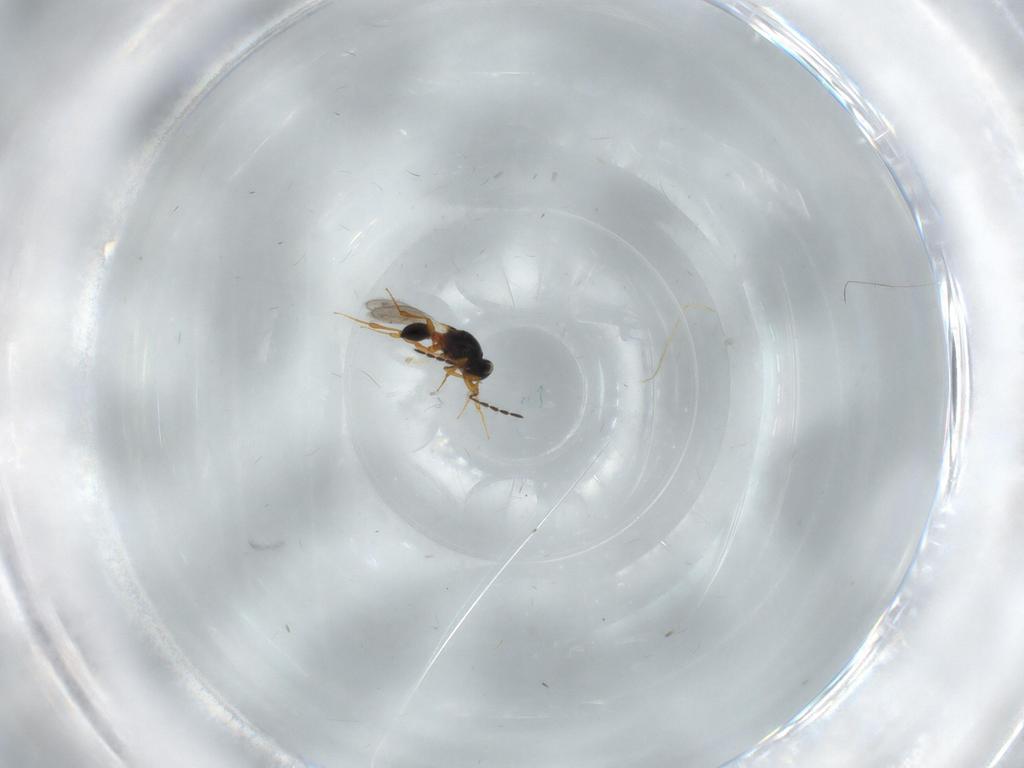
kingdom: Animalia
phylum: Arthropoda
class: Insecta
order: Hymenoptera
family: Platygastridae
